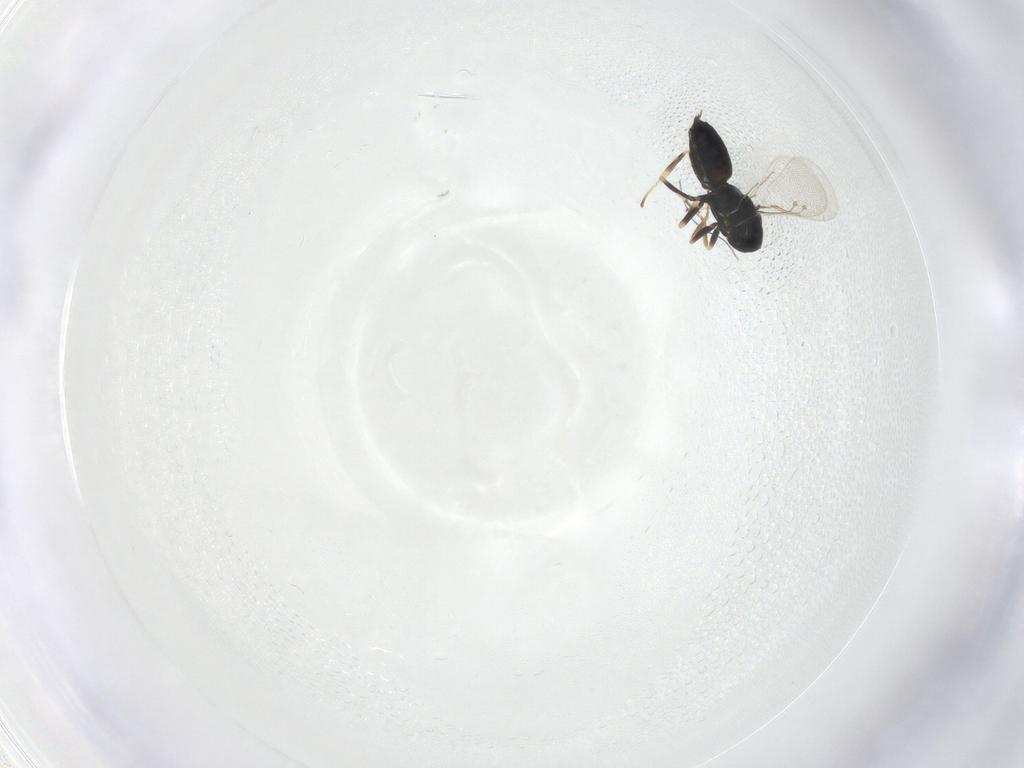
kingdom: Animalia
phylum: Arthropoda
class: Insecta
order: Hymenoptera
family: Eulophidae
